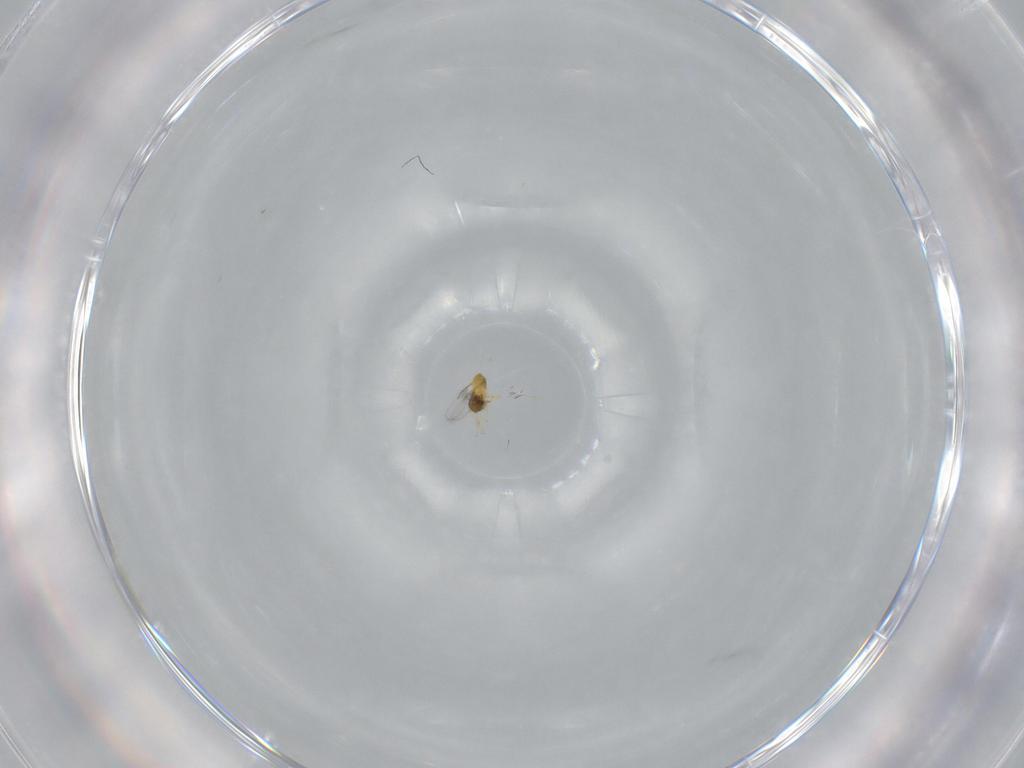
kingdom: Animalia
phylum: Arthropoda
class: Insecta
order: Hymenoptera
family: Trichogrammatidae
